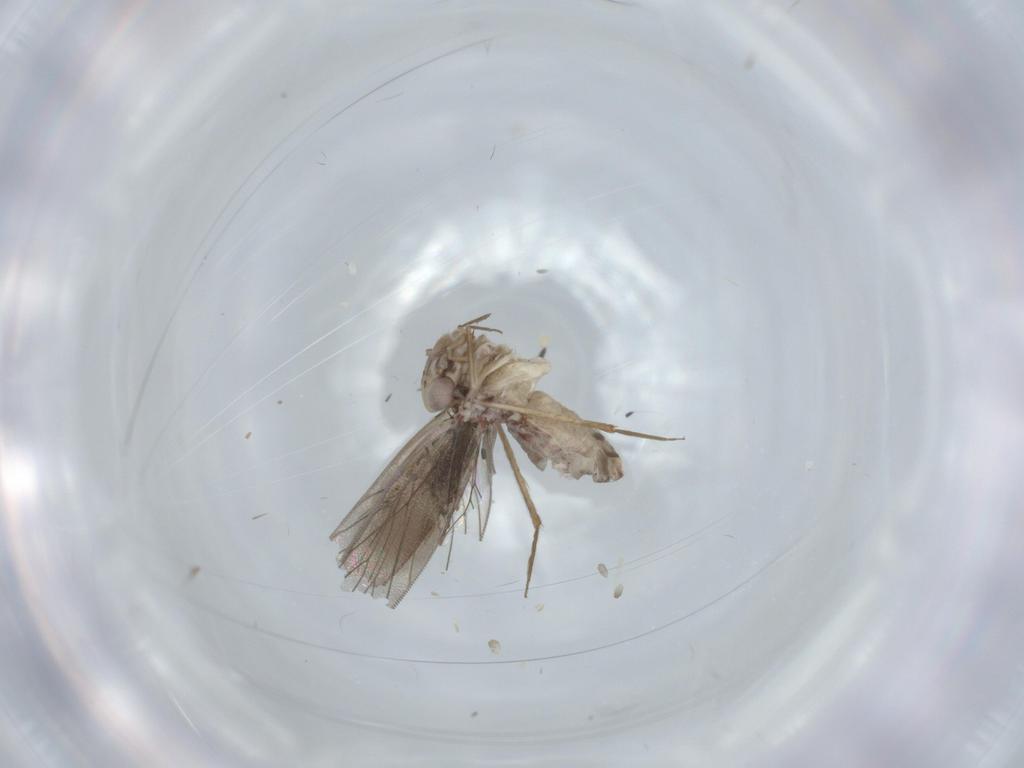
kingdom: Animalia
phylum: Arthropoda
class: Insecta
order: Psocodea
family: Lepidopsocidae
